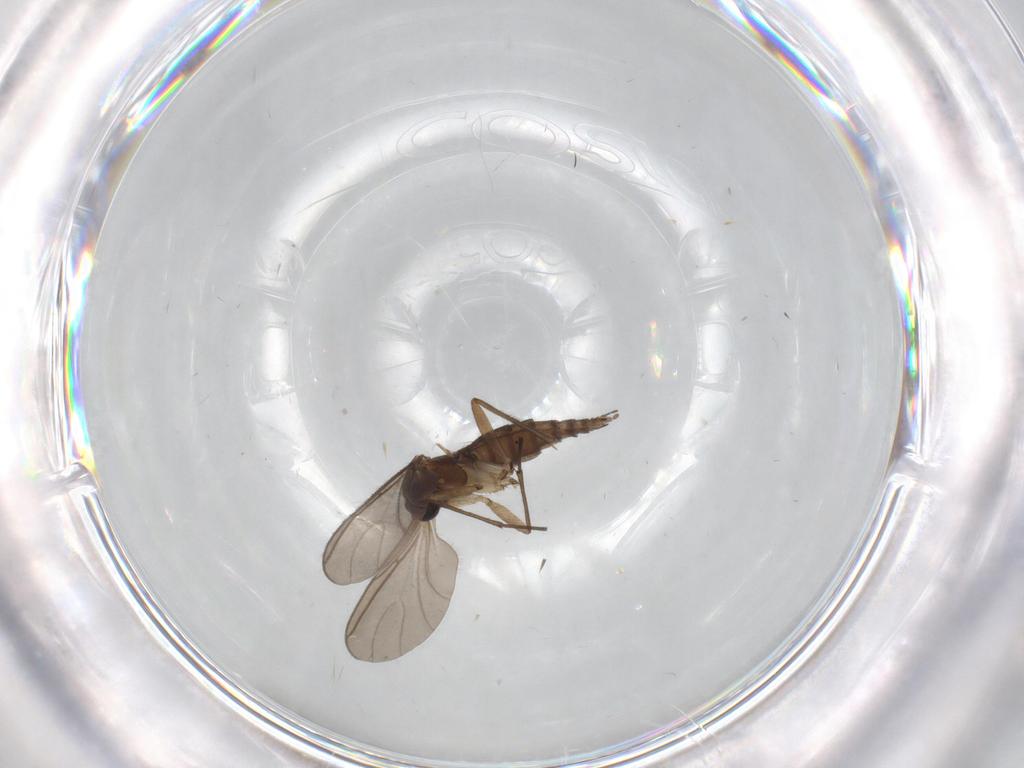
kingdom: Animalia
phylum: Arthropoda
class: Insecta
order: Diptera
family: Sciaridae
